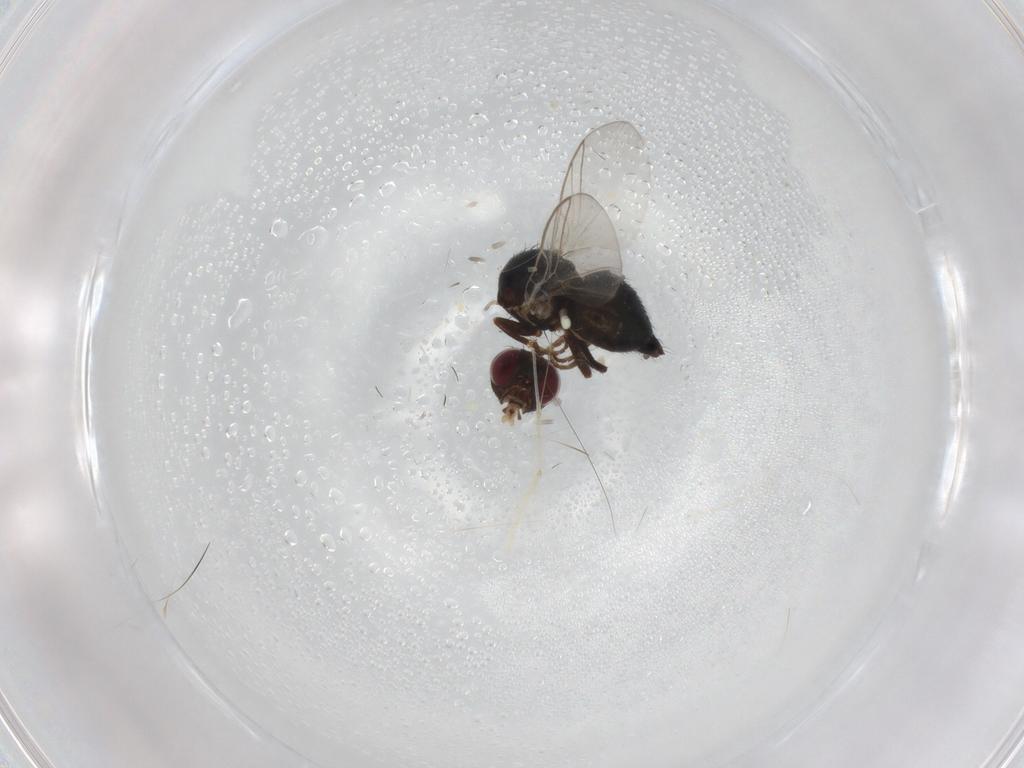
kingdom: Animalia
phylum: Arthropoda
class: Insecta
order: Diptera
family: Agromyzidae
